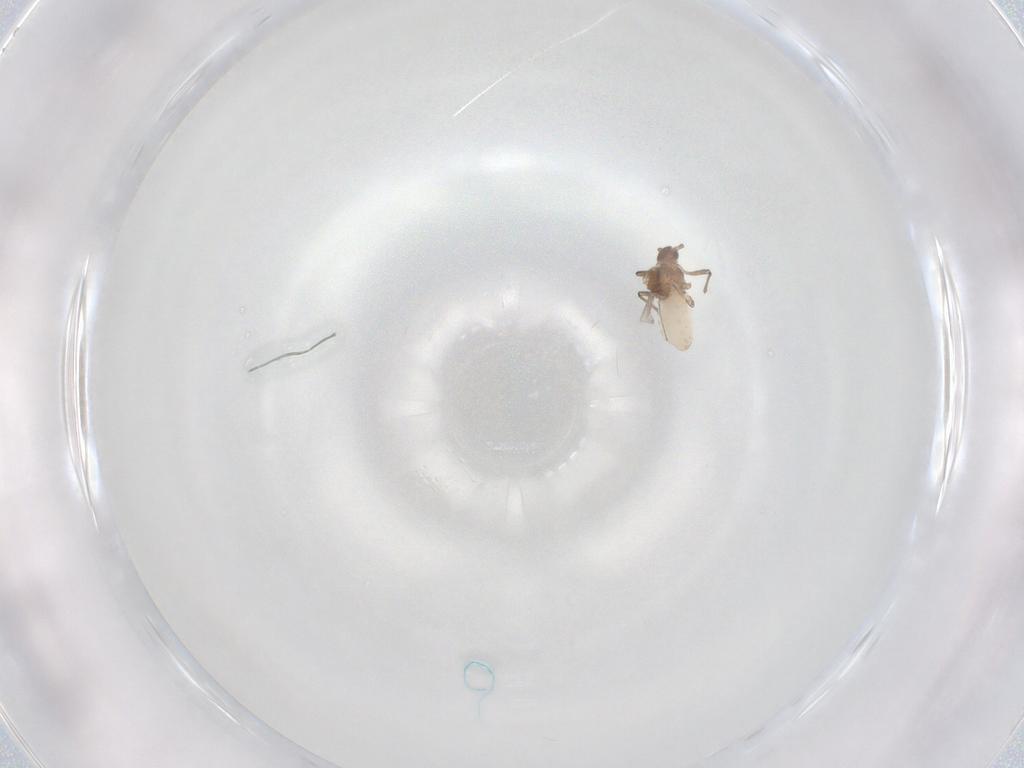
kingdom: Animalia
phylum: Arthropoda
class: Insecta
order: Hemiptera
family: Aphididae
